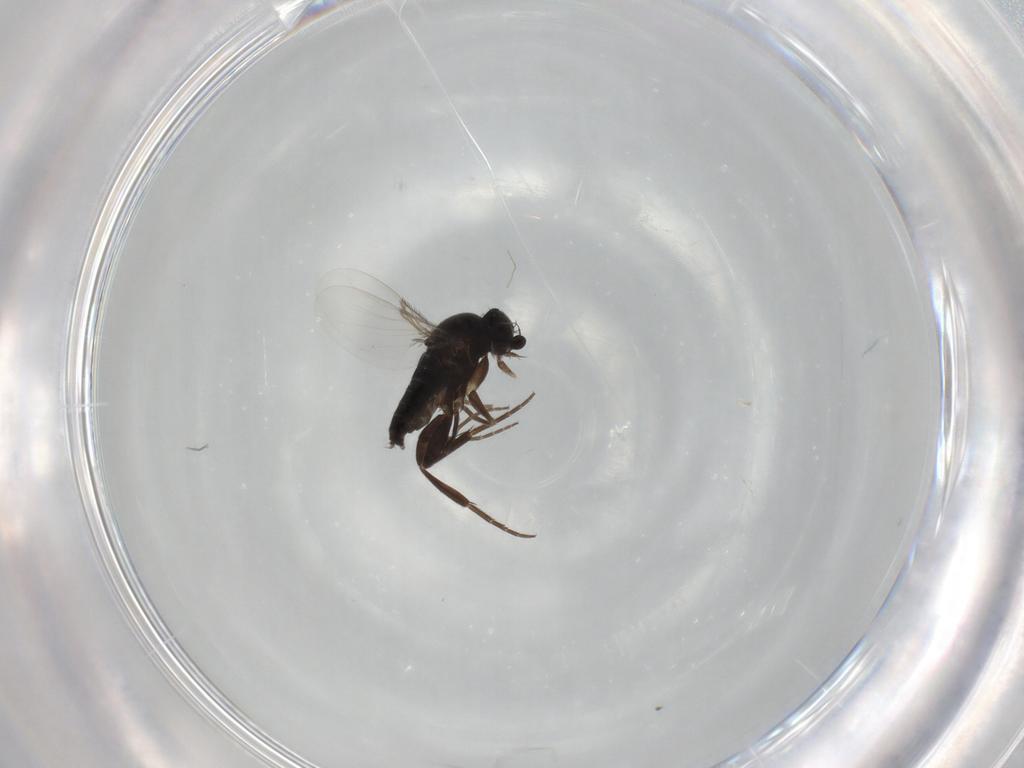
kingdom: Animalia
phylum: Arthropoda
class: Insecta
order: Diptera
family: Phoridae
